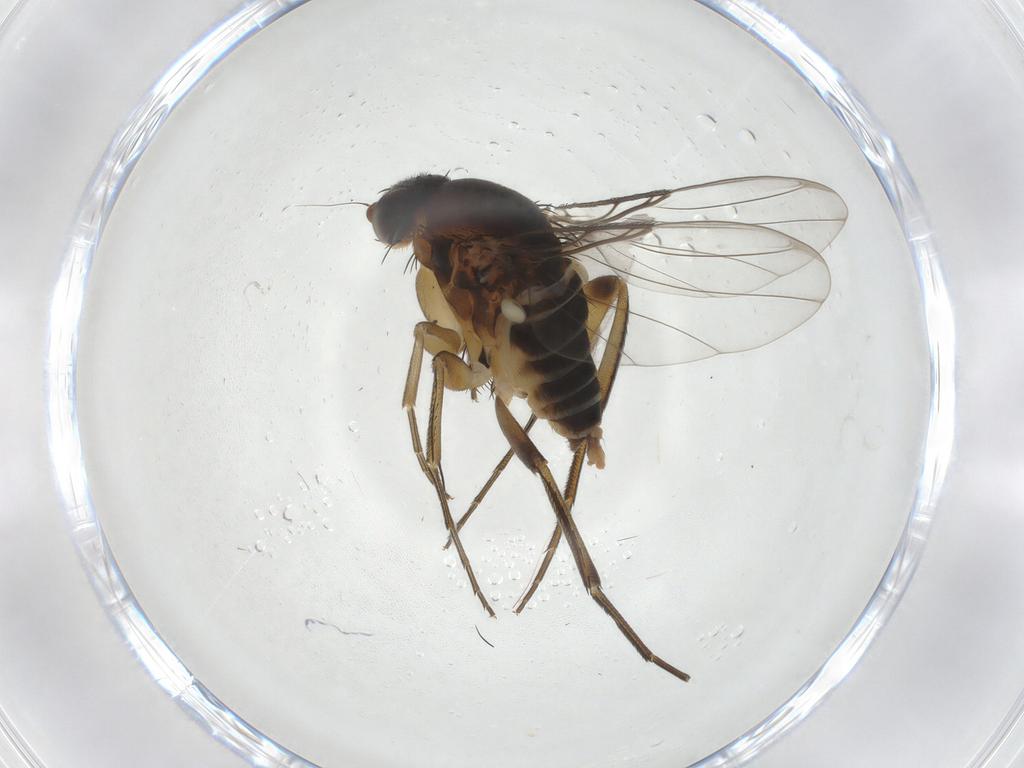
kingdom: Animalia
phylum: Arthropoda
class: Insecta
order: Diptera
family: Phoridae
